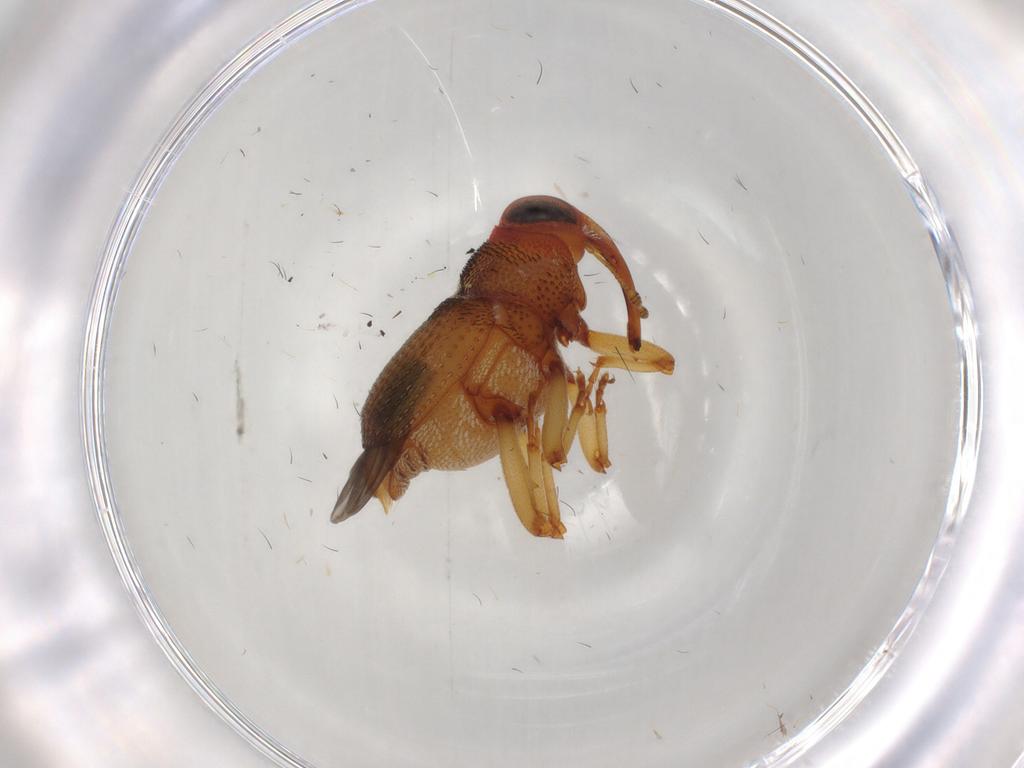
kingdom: Animalia
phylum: Arthropoda
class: Insecta
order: Coleoptera
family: Curculionidae
